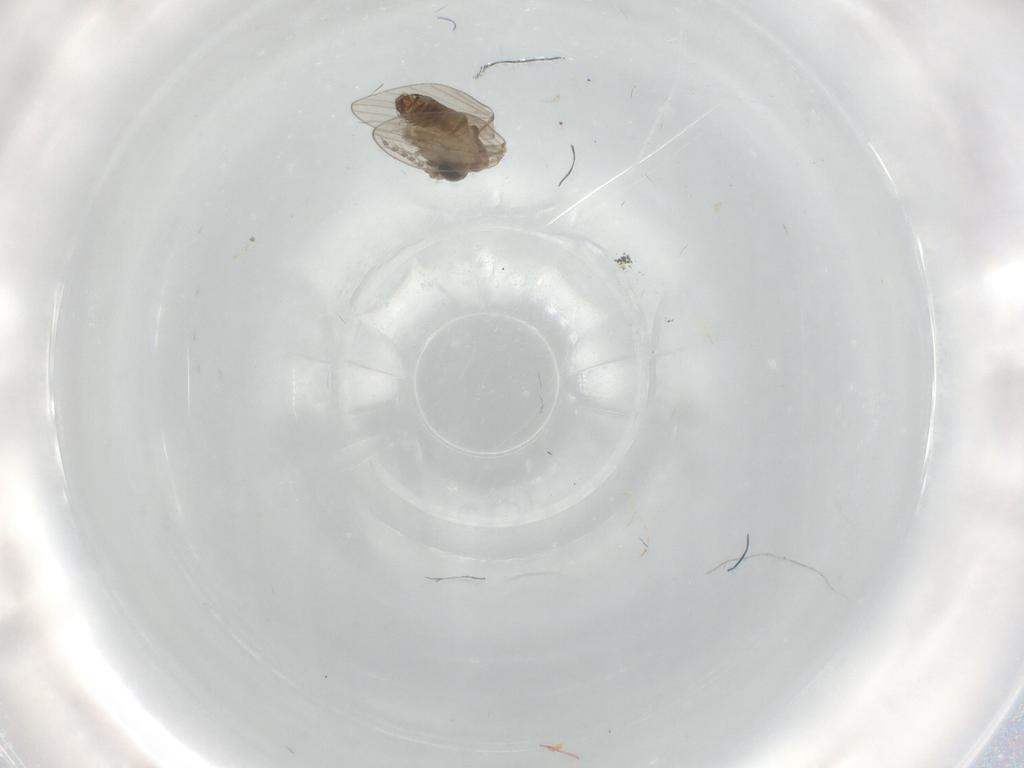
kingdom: Animalia
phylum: Arthropoda
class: Insecta
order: Diptera
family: Psychodidae
